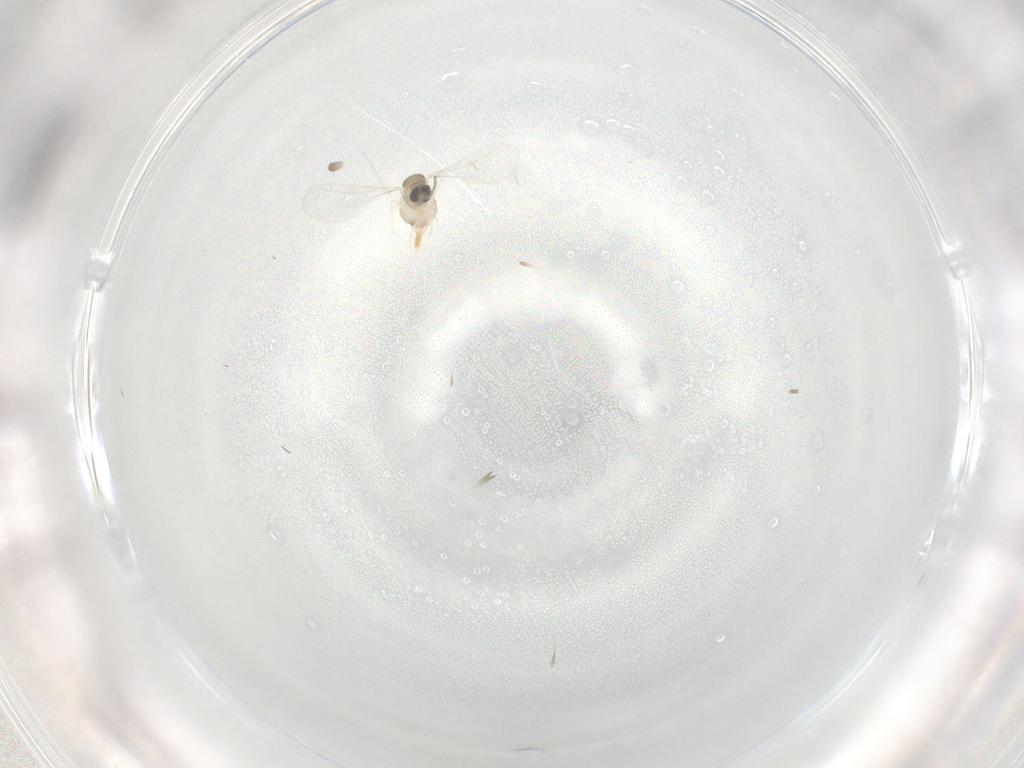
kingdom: Animalia
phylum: Arthropoda
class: Insecta
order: Diptera
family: Cecidomyiidae
